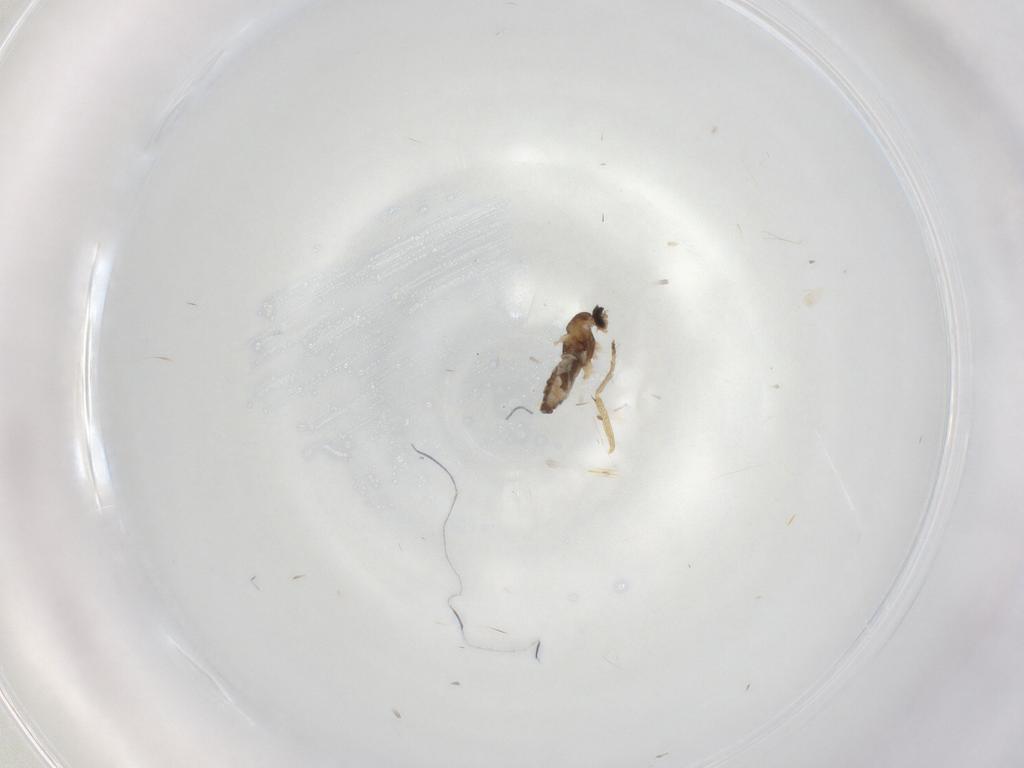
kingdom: Animalia
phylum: Arthropoda
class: Insecta
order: Diptera
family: Cecidomyiidae
